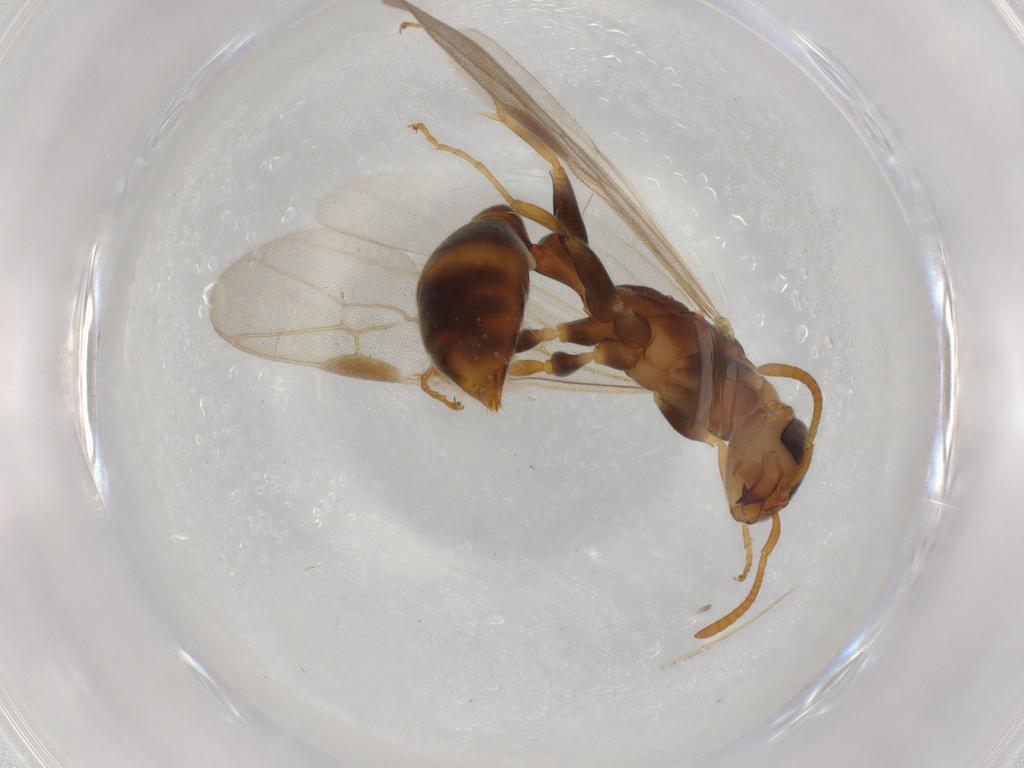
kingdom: Animalia
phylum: Arthropoda
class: Insecta
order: Hymenoptera
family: Formicidae
